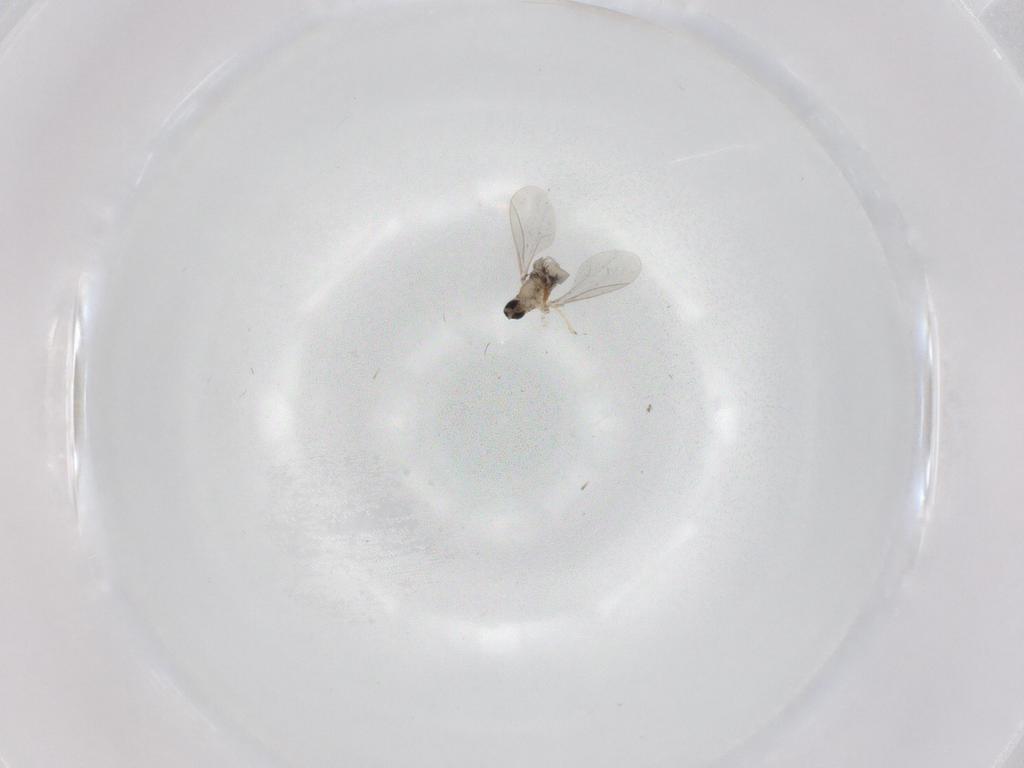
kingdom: Animalia
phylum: Arthropoda
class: Insecta
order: Diptera
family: Cecidomyiidae
